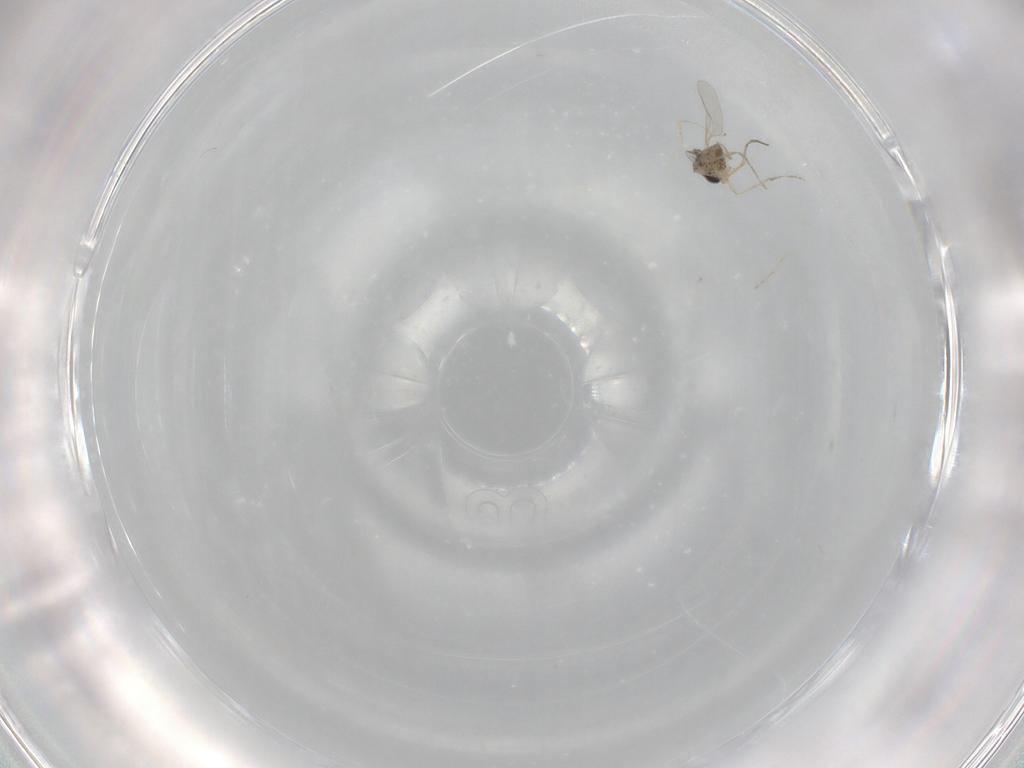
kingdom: Animalia
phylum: Arthropoda
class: Insecta
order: Diptera
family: Cecidomyiidae
